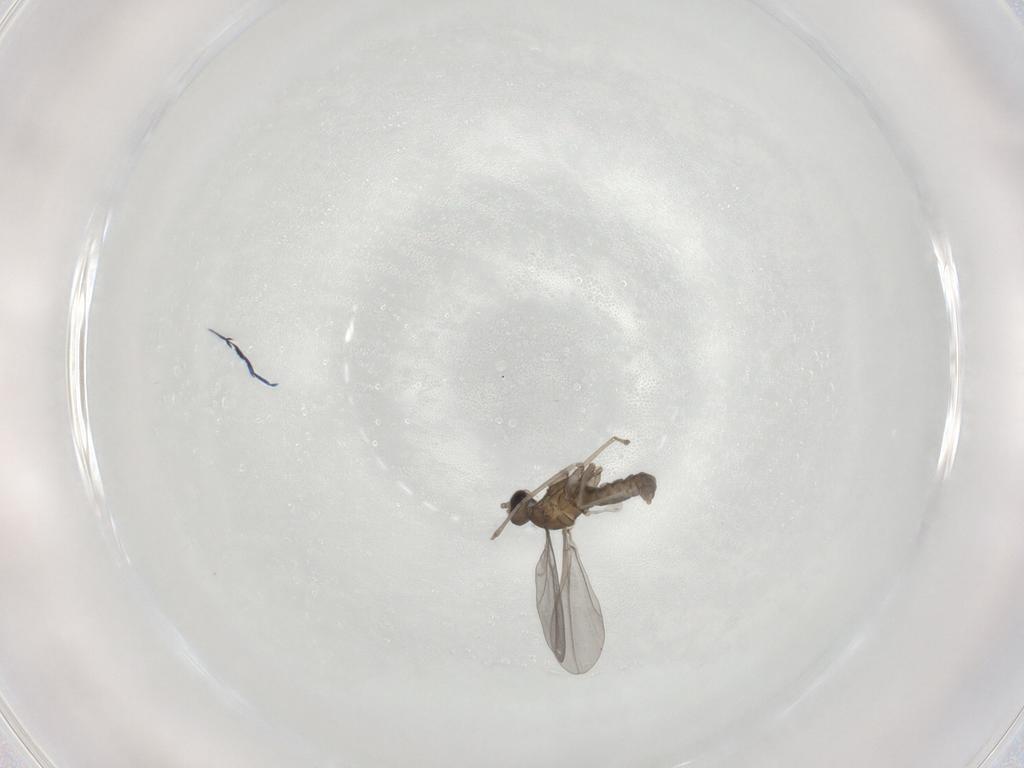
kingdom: Animalia
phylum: Arthropoda
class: Insecta
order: Diptera
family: Cecidomyiidae
